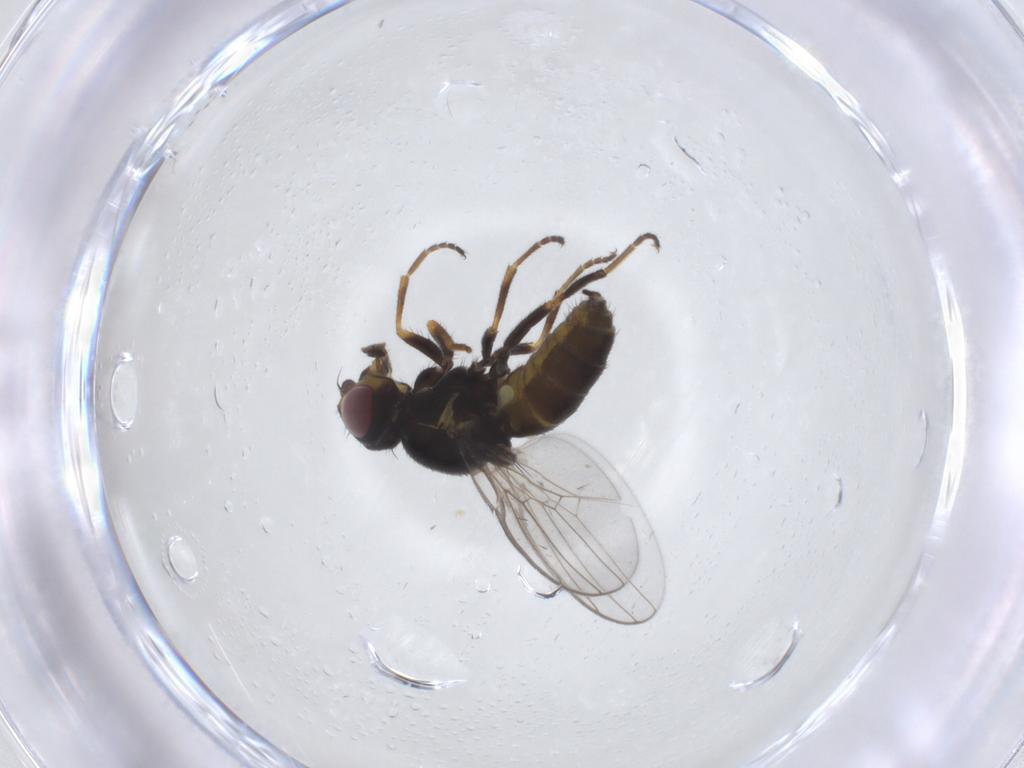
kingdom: Animalia
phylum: Arthropoda
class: Insecta
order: Diptera
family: Chloropidae
